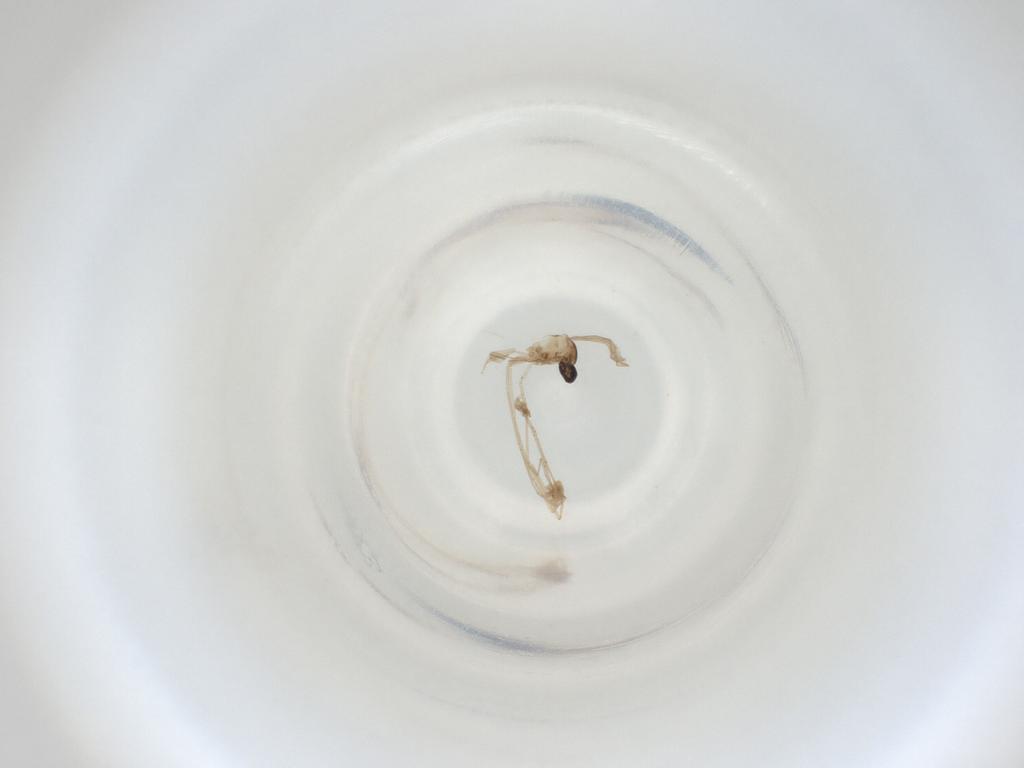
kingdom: Animalia
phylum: Arthropoda
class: Insecta
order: Diptera
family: Cecidomyiidae
